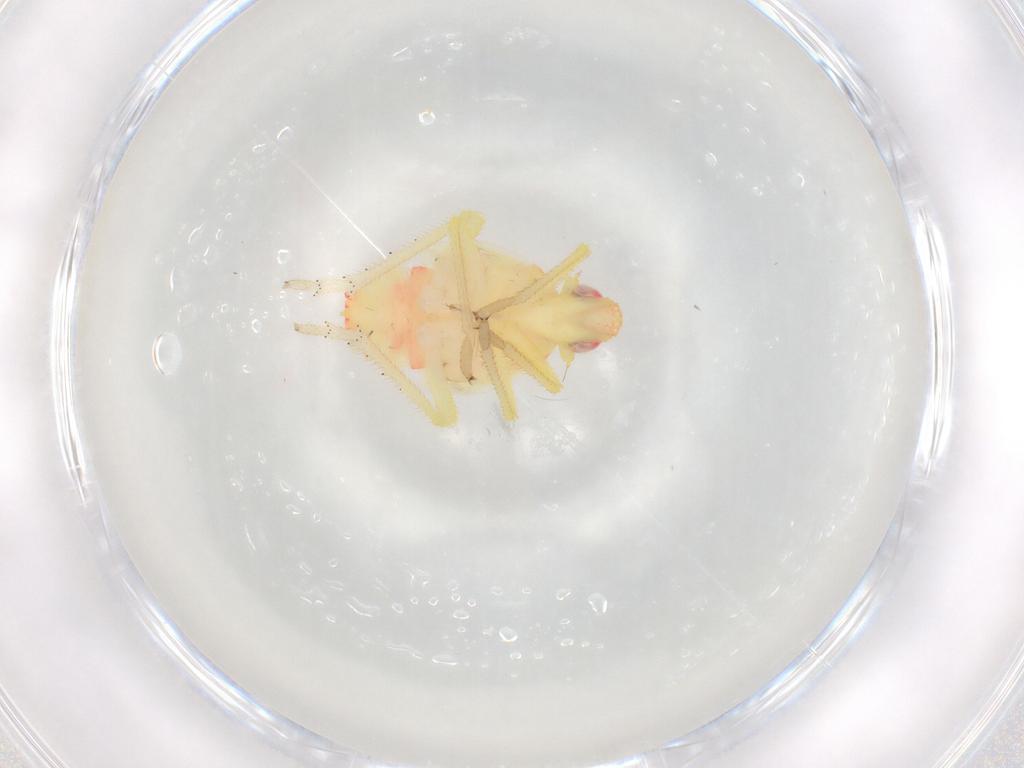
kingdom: Animalia
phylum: Arthropoda
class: Insecta
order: Hemiptera
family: Tropiduchidae
